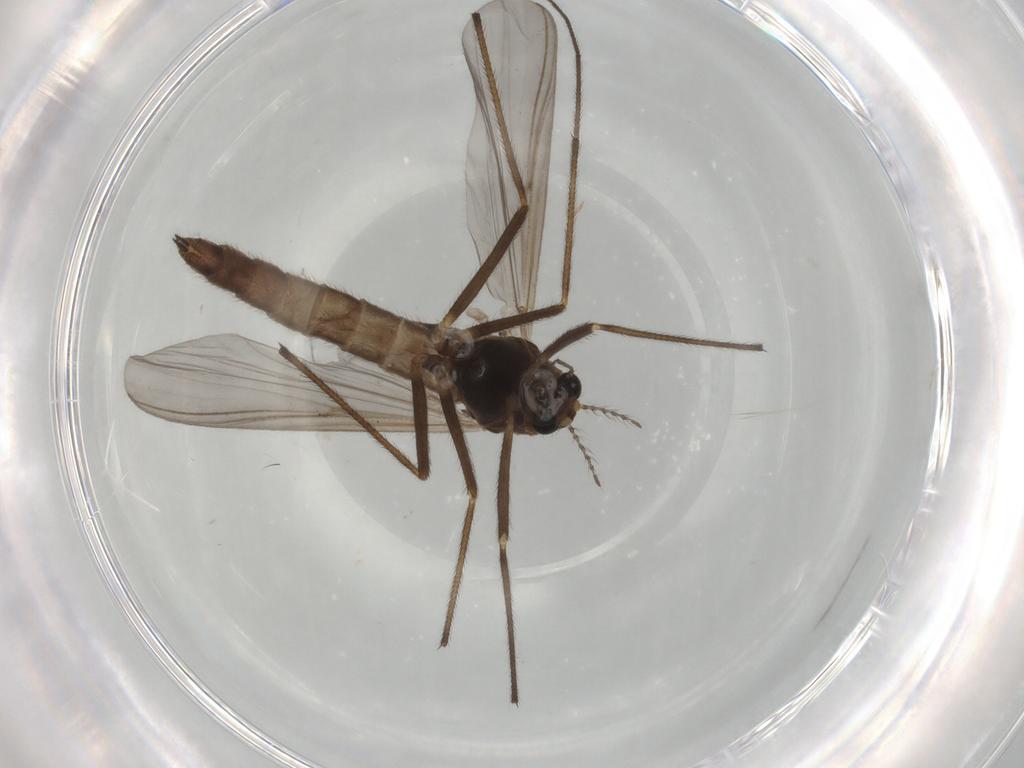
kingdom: Animalia
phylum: Arthropoda
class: Insecta
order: Diptera
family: Chironomidae
